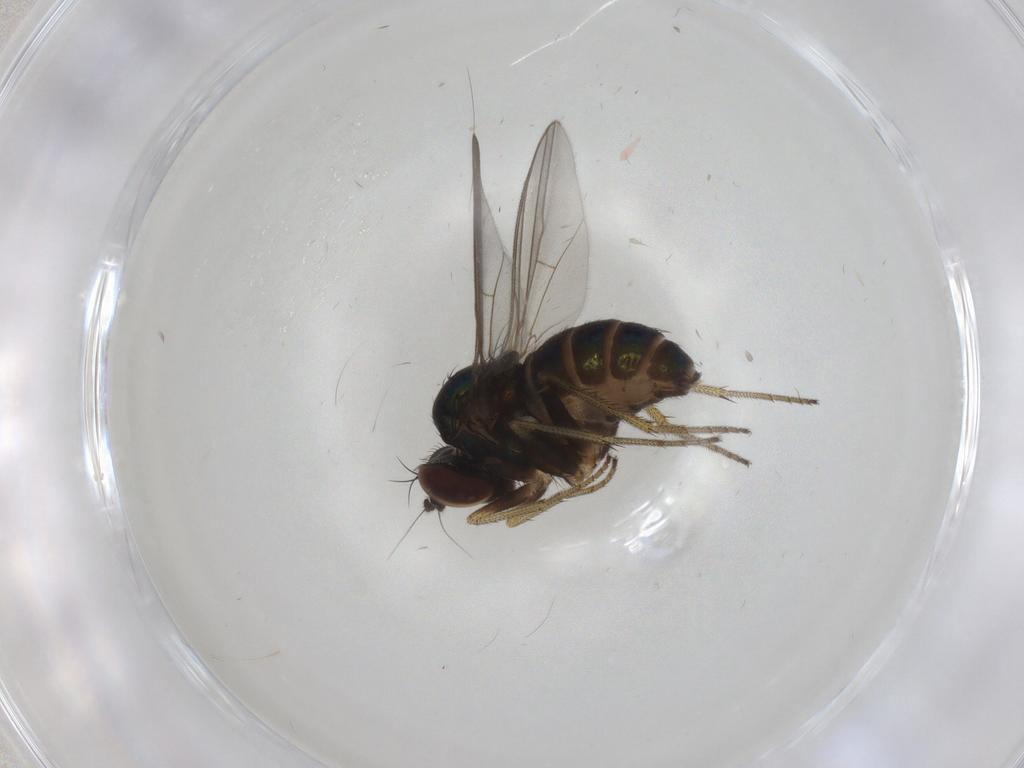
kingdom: Animalia
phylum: Arthropoda
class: Insecta
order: Diptera
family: Dolichopodidae
